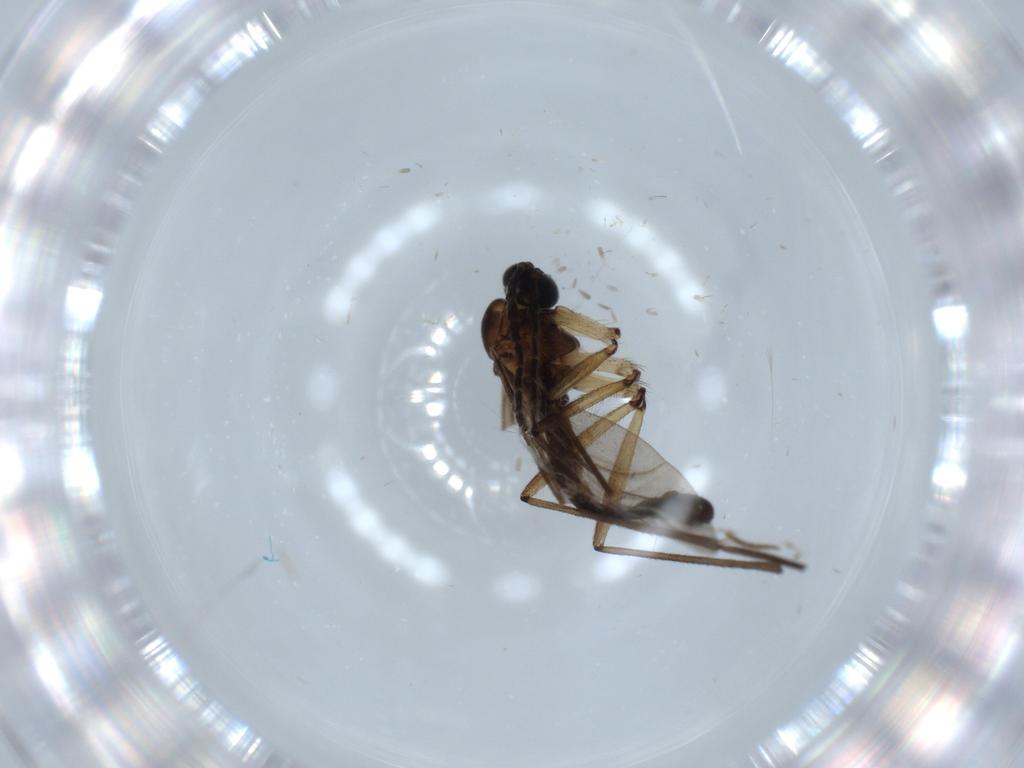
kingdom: Animalia
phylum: Arthropoda
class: Insecta
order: Diptera
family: Sciaridae
